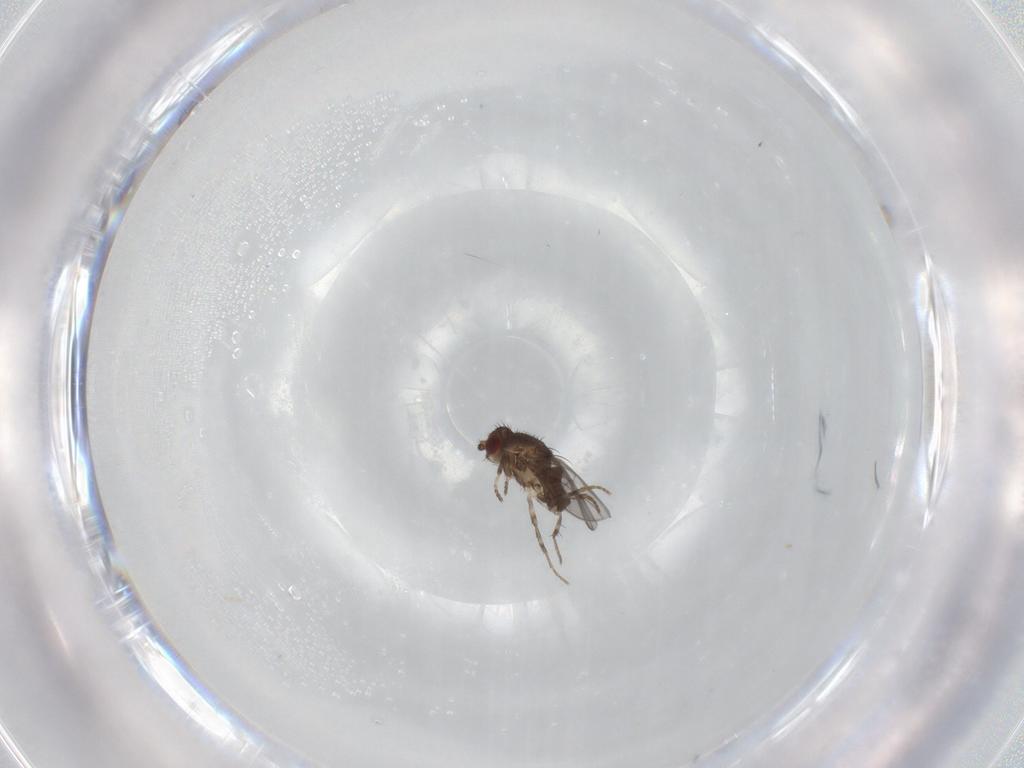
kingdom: Animalia
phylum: Arthropoda
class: Insecta
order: Diptera
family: Sphaeroceridae
